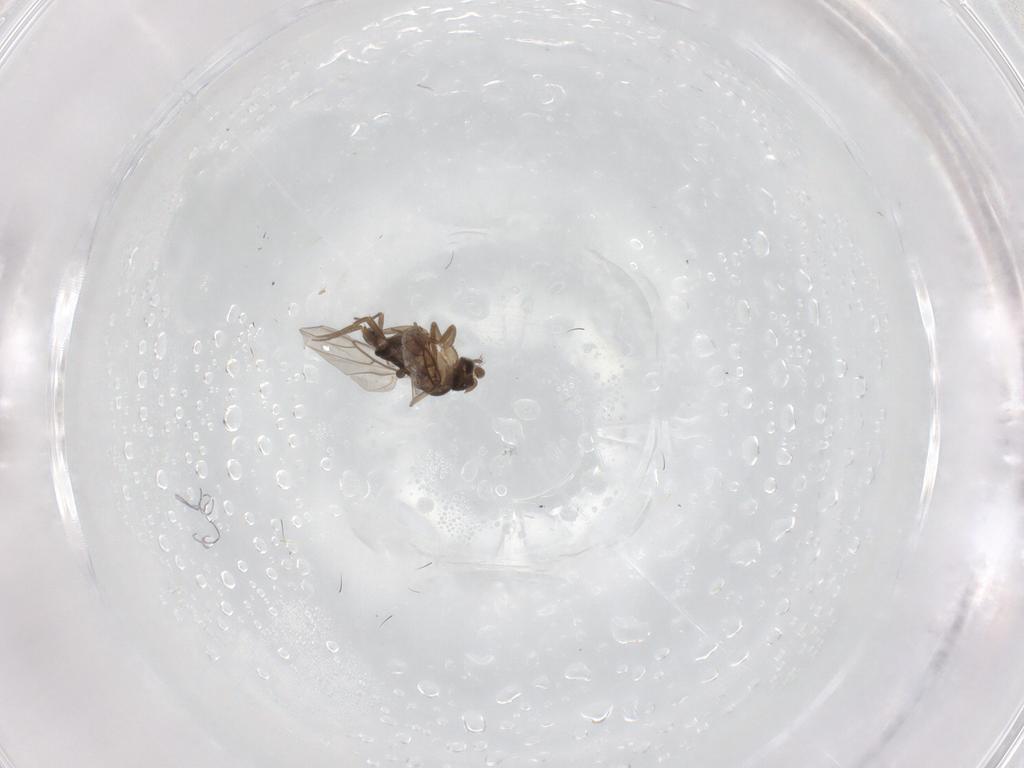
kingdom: Animalia
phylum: Arthropoda
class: Insecta
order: Diptera
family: Phoridae
